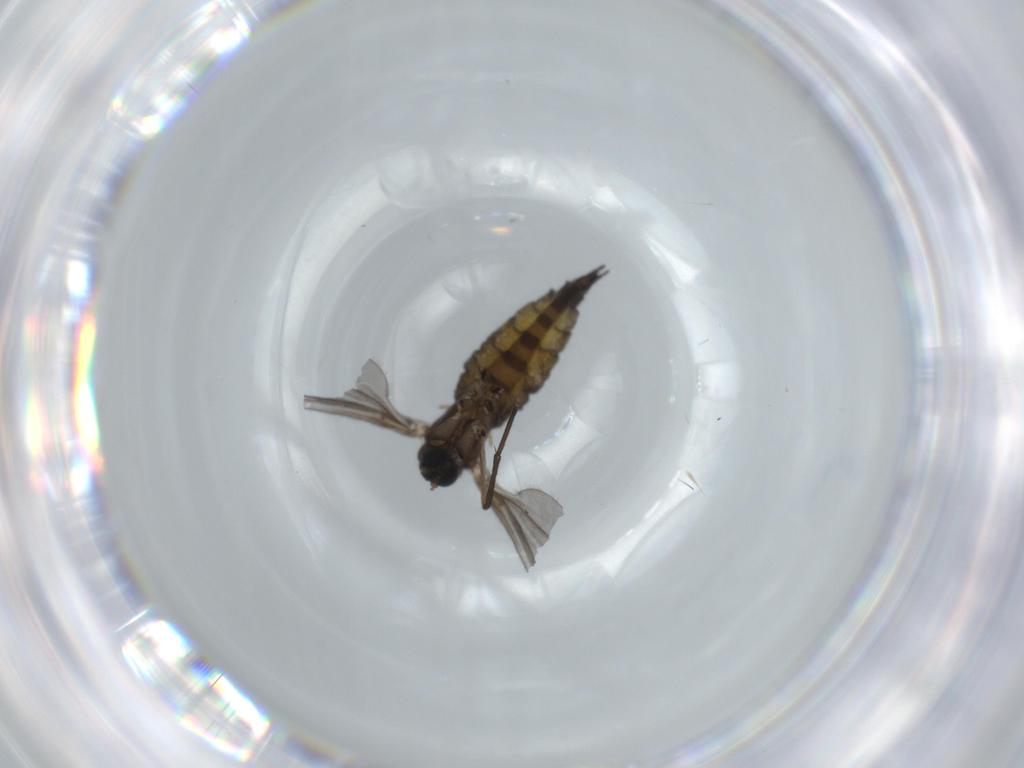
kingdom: Animalia
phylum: Arthropoda
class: Insecta
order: Diptera
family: Sciaridae
